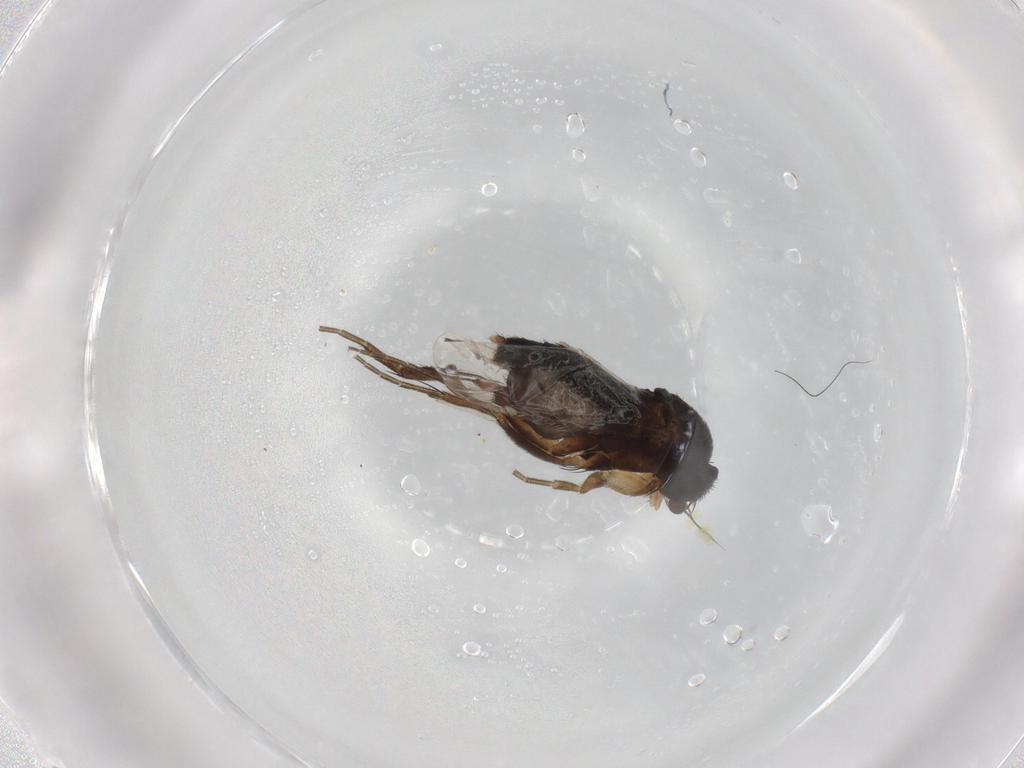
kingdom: Animalia
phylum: Arthropoda
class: Insecta
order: Diptera
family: Phoridae
